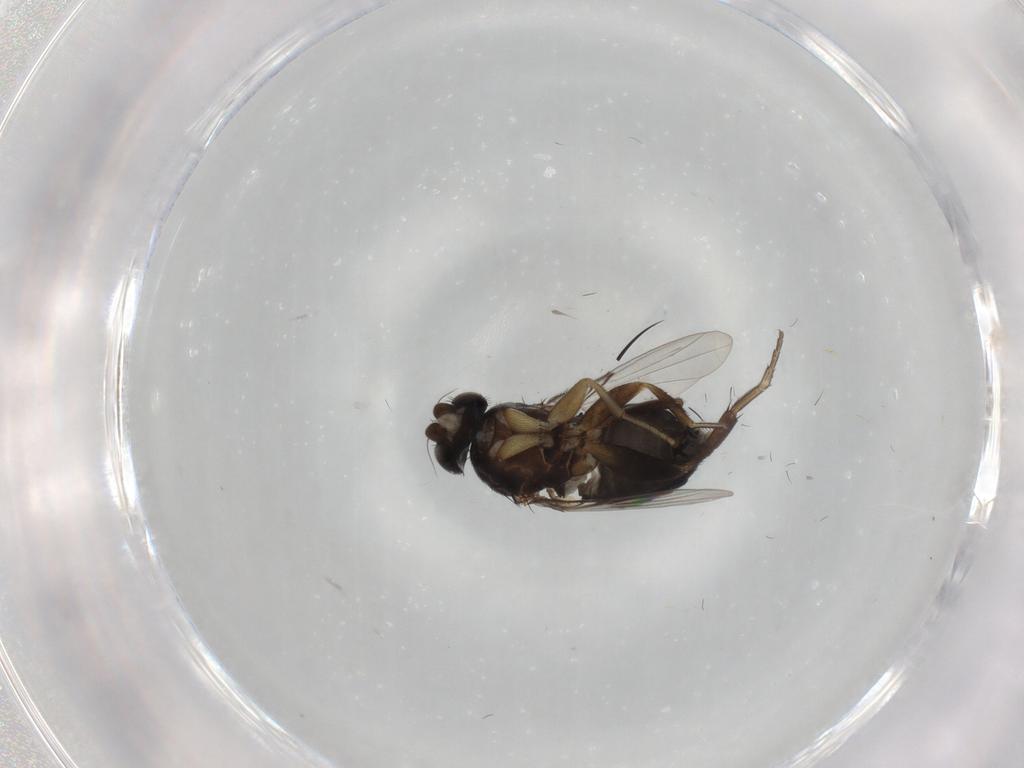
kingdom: Animalia
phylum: Arthropoda
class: Insecta
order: Diptera
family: Phoridae
